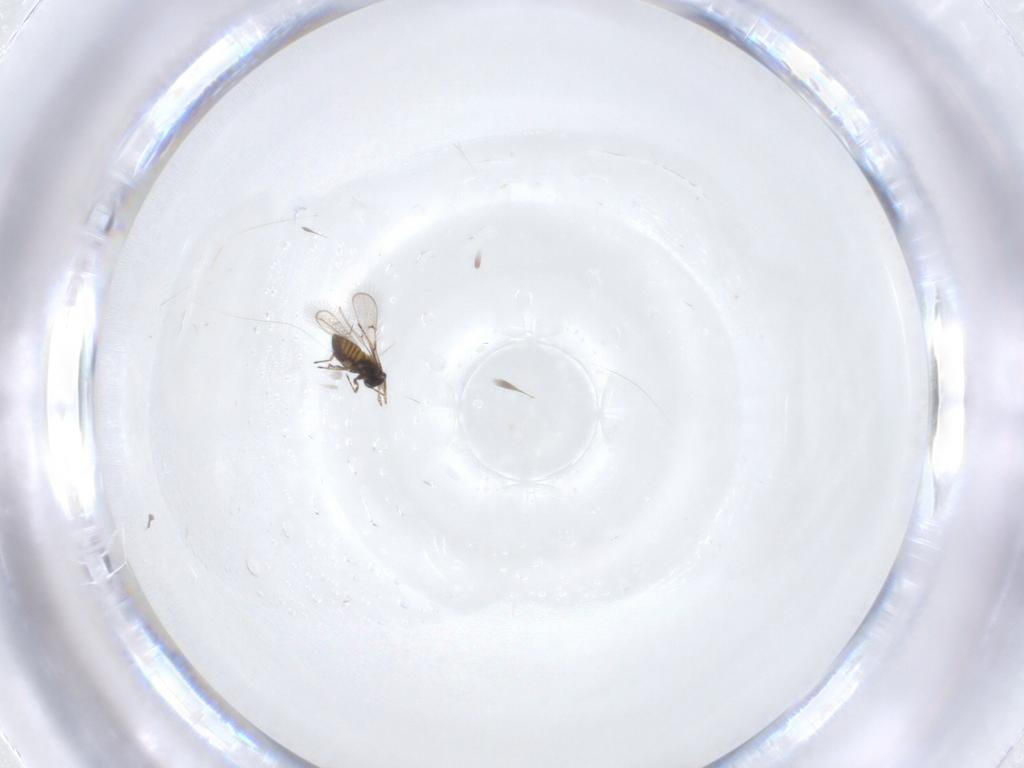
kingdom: Animalia
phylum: Arthropoda
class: Insecta
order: Hymenoptera
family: Trichogrammatidae
